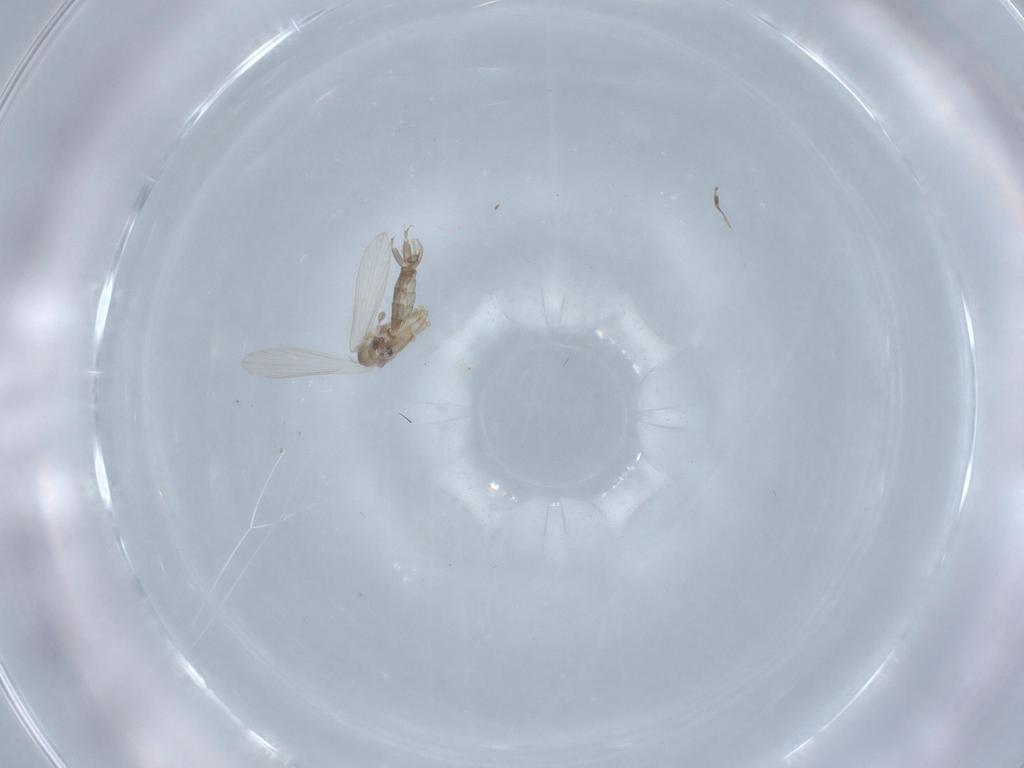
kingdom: Animalia
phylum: Arthropoda
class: Insecta
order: Diptera
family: Psychodidae
